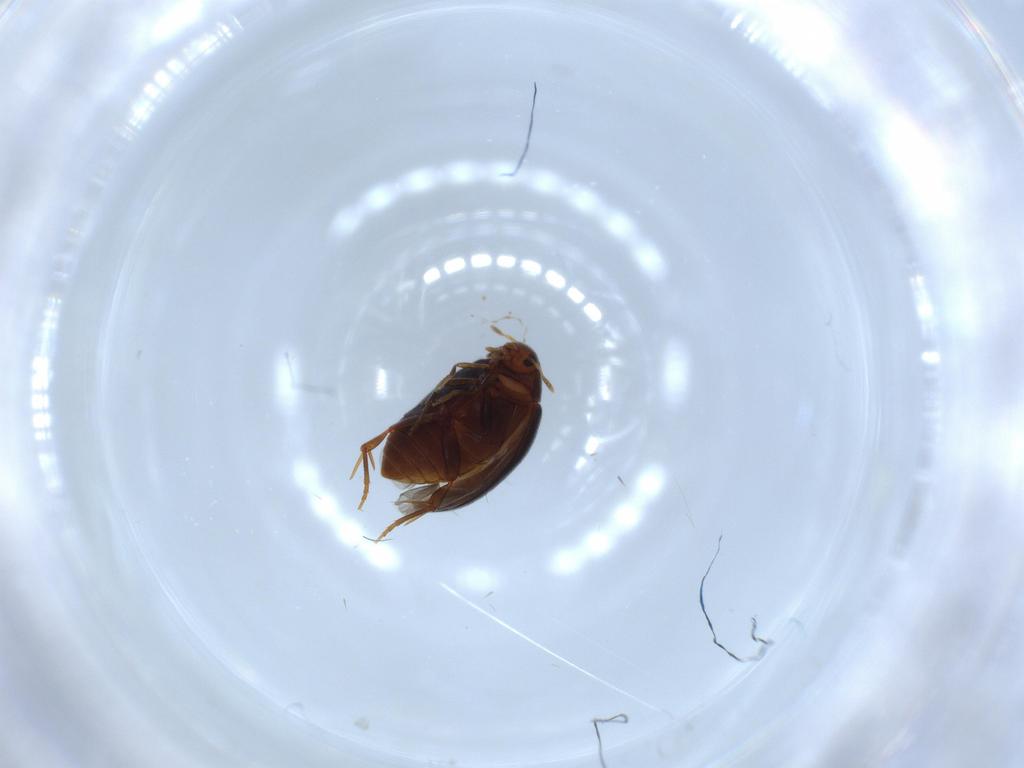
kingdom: Animalia
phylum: Arthropoda
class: Insecta
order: Coleoptera
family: Melandryidae
